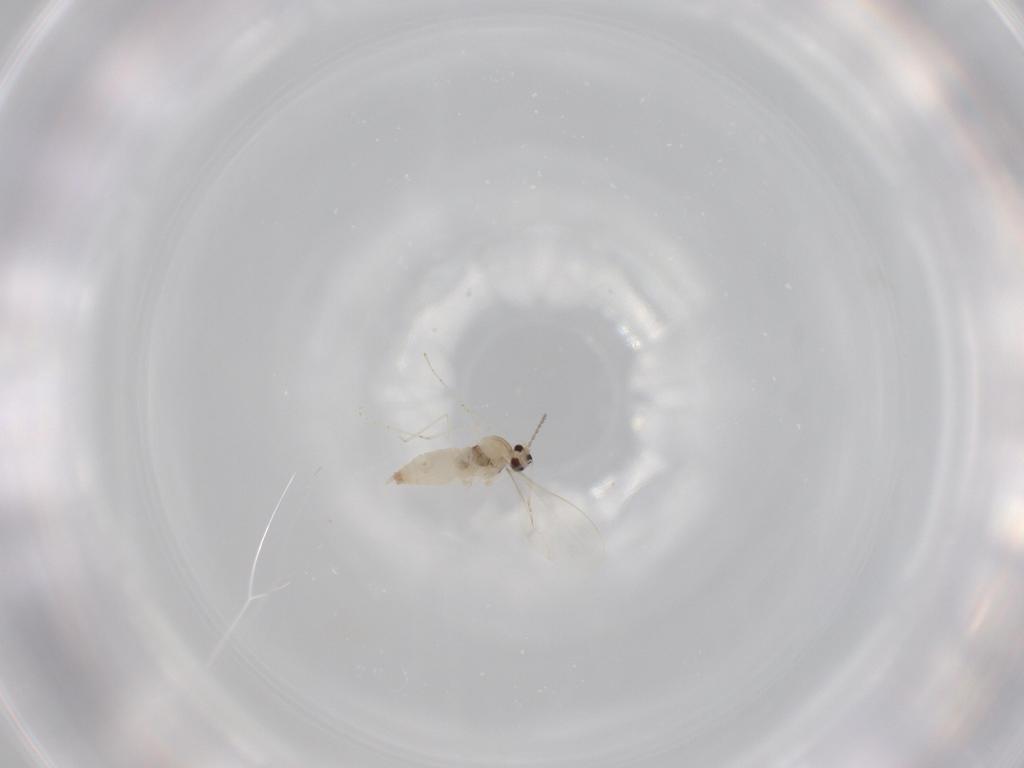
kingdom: Animalia
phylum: Arthropoda
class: Insecta
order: Diptera
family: Cecidomyiidae
